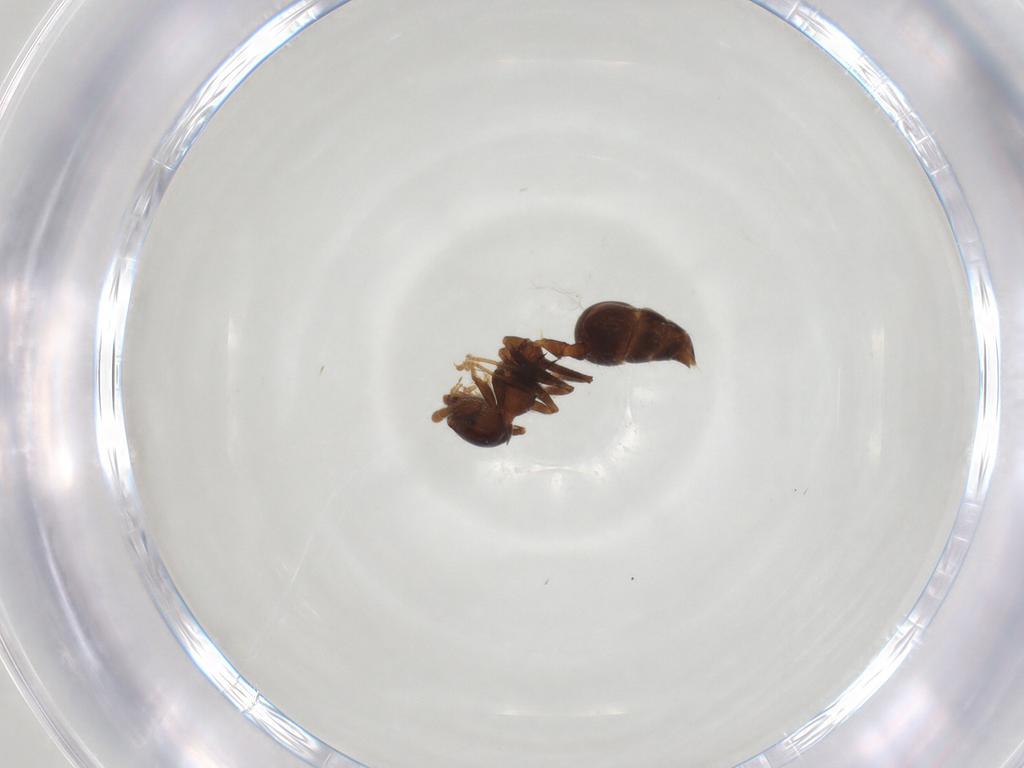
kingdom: Animalia
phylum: Arthropoda
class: Insecta
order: Hymenoptera
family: Formicidae
